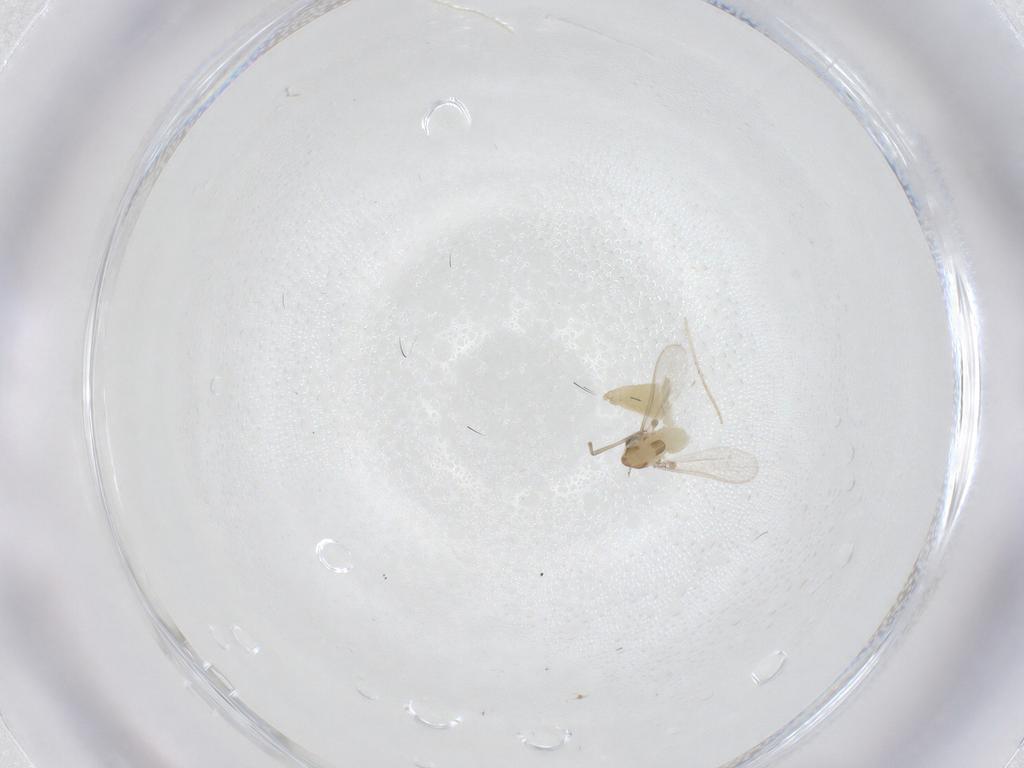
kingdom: Animalia
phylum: Arthropoda
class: Insecta
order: Diptera
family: Chironomidae
